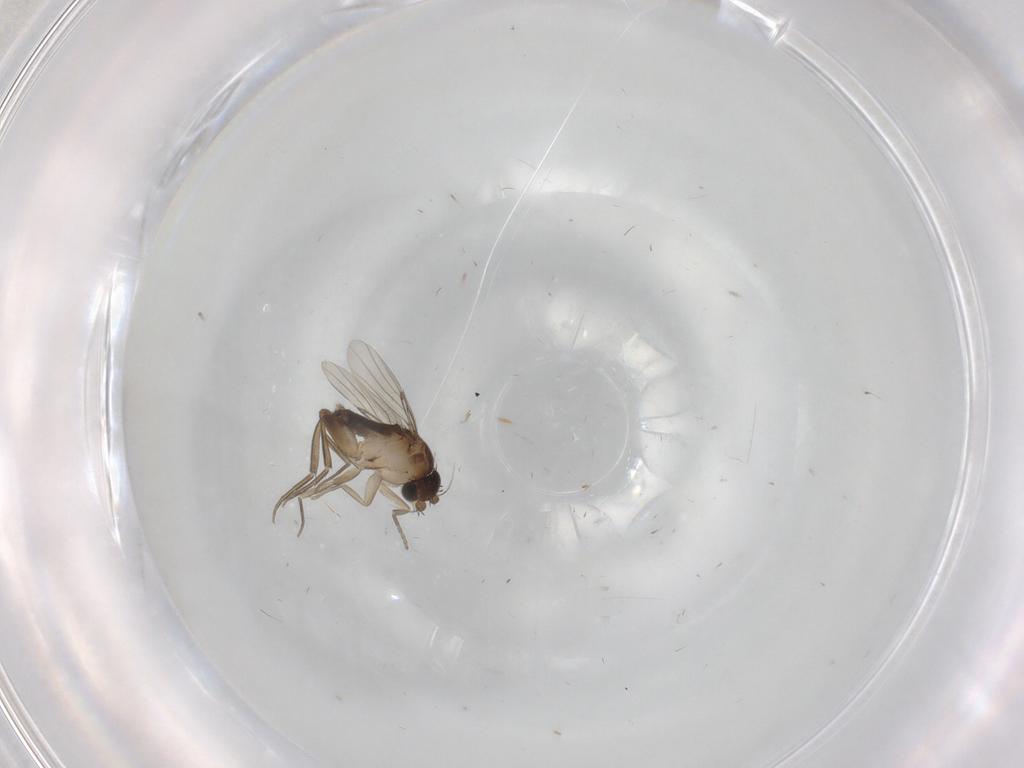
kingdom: Animalia
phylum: Arthropoda
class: Insecta
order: Diptera
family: Phoridae
